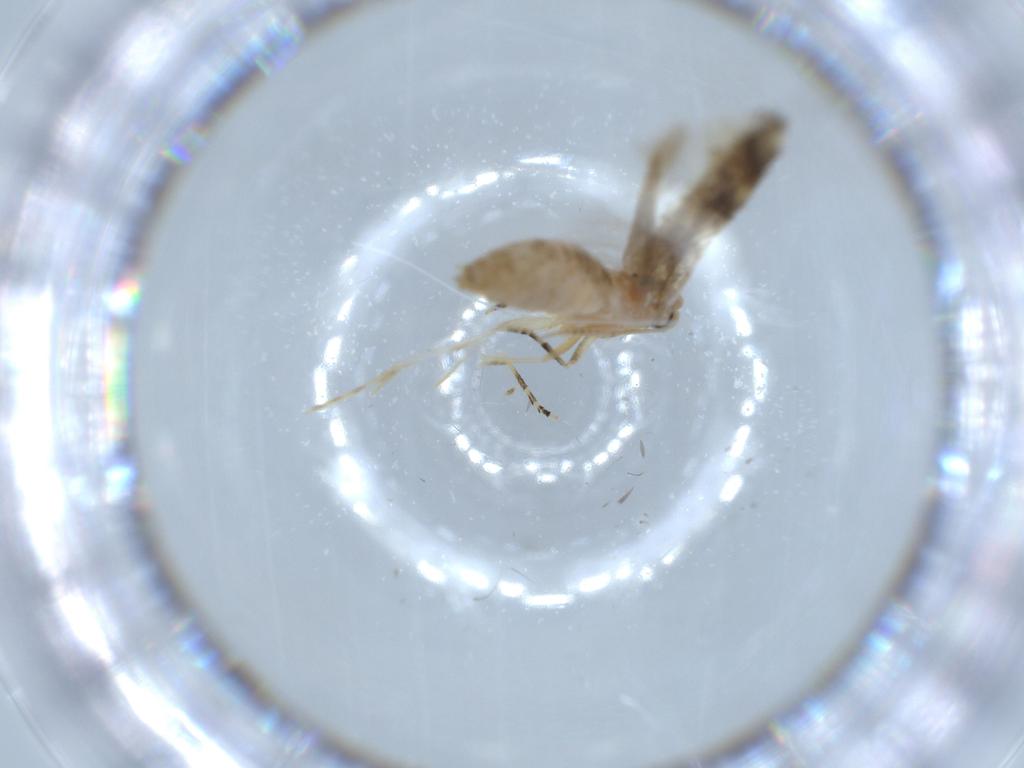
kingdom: Animalia
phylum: Arthropoda
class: Insecta
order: Lepidoptera
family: Bucculatricidae
